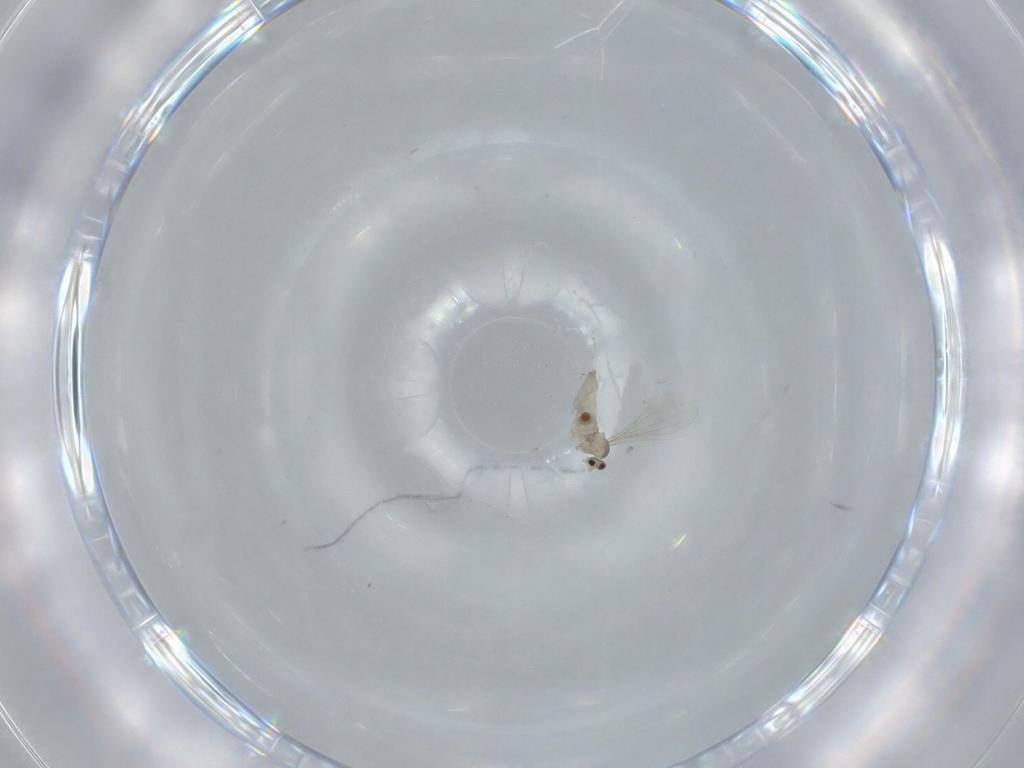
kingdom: Animalia
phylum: Arthropoda
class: Insecta
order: Diptera
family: Cecidomyiidae
